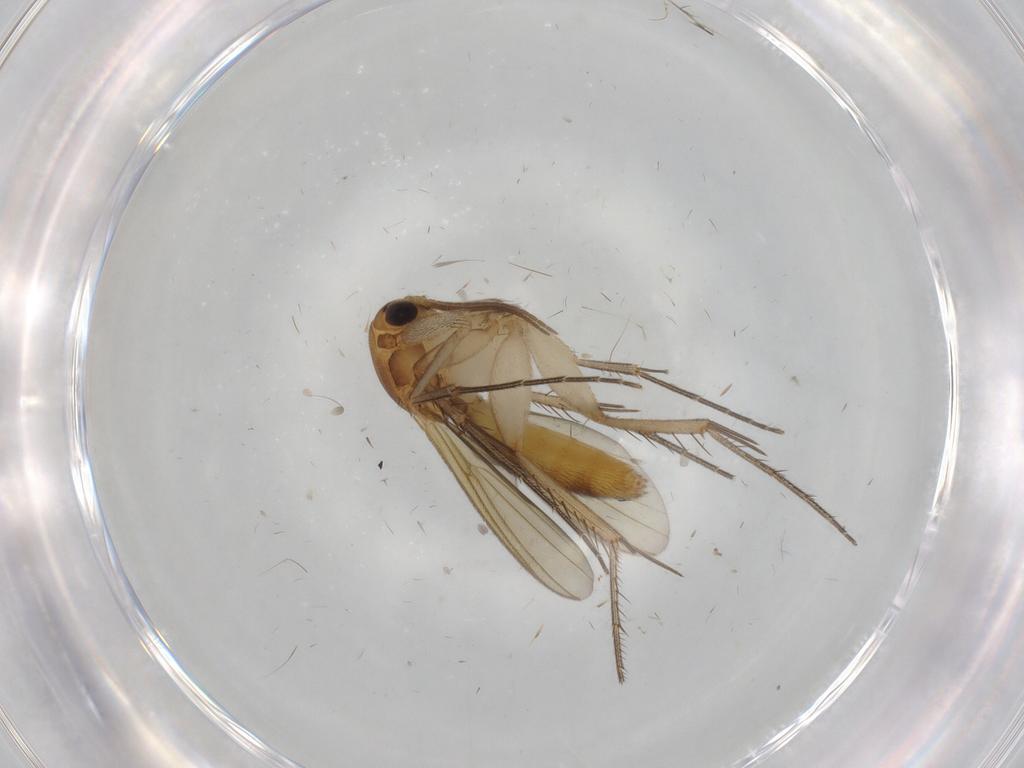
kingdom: Animalia
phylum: Arthropoda
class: Insecta
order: Diptera
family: Mycetophilidae
